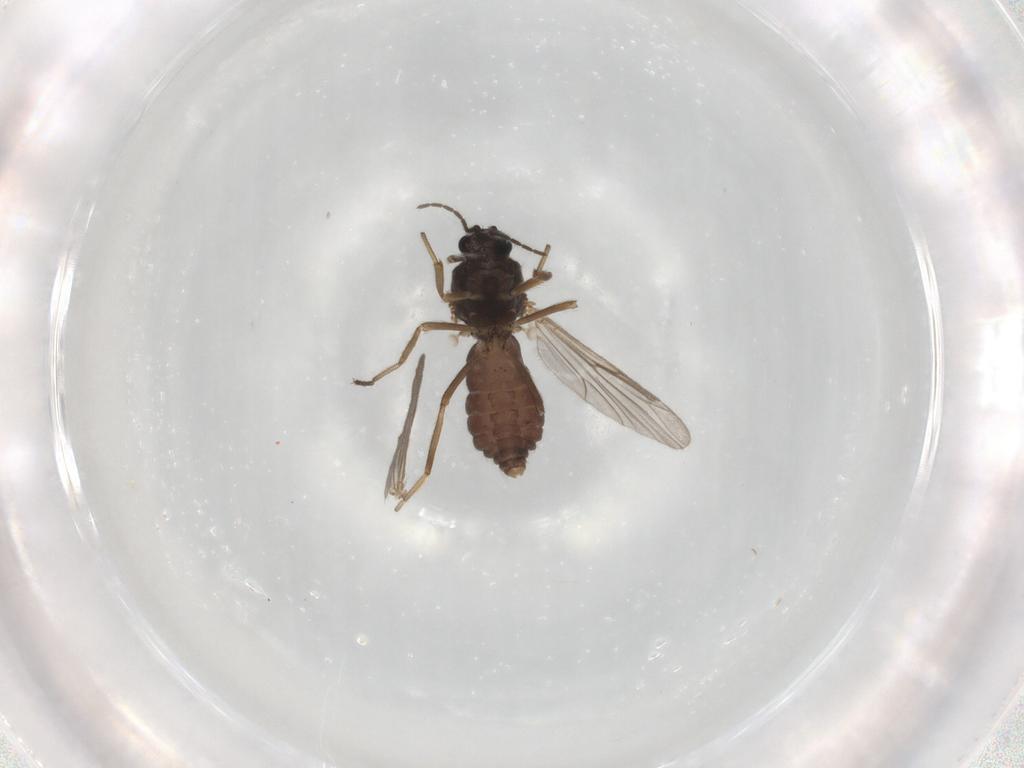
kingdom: Animalia
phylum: Arthropoda
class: Insecta
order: Diptera
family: Ceratopogonidae
